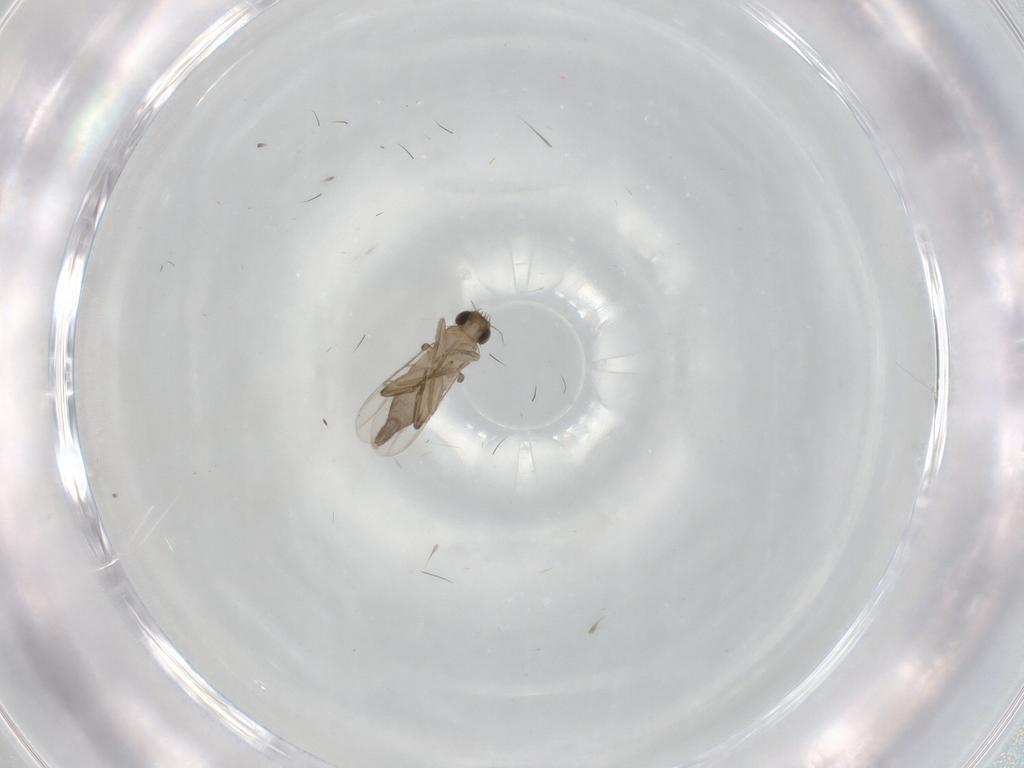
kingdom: Animalia
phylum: Arthropoda
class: Insecta
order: Diptera
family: Phoridae
